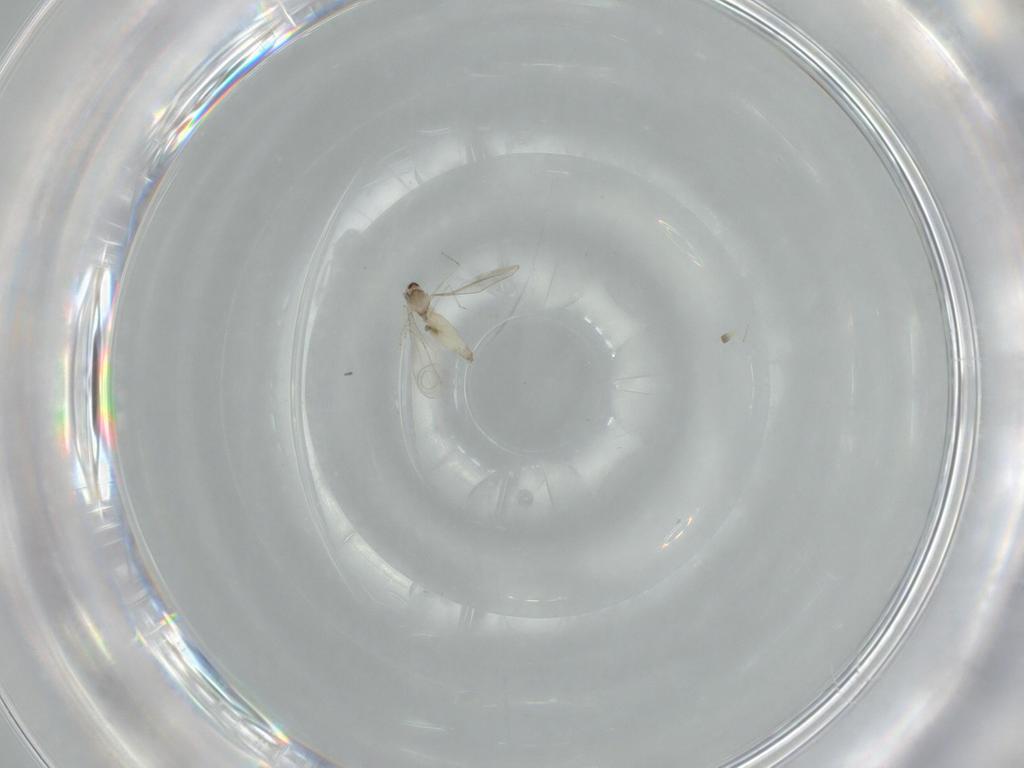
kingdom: Animalia
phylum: Arthropoda
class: Insecta
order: Diptera
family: Cecidomyiidae
